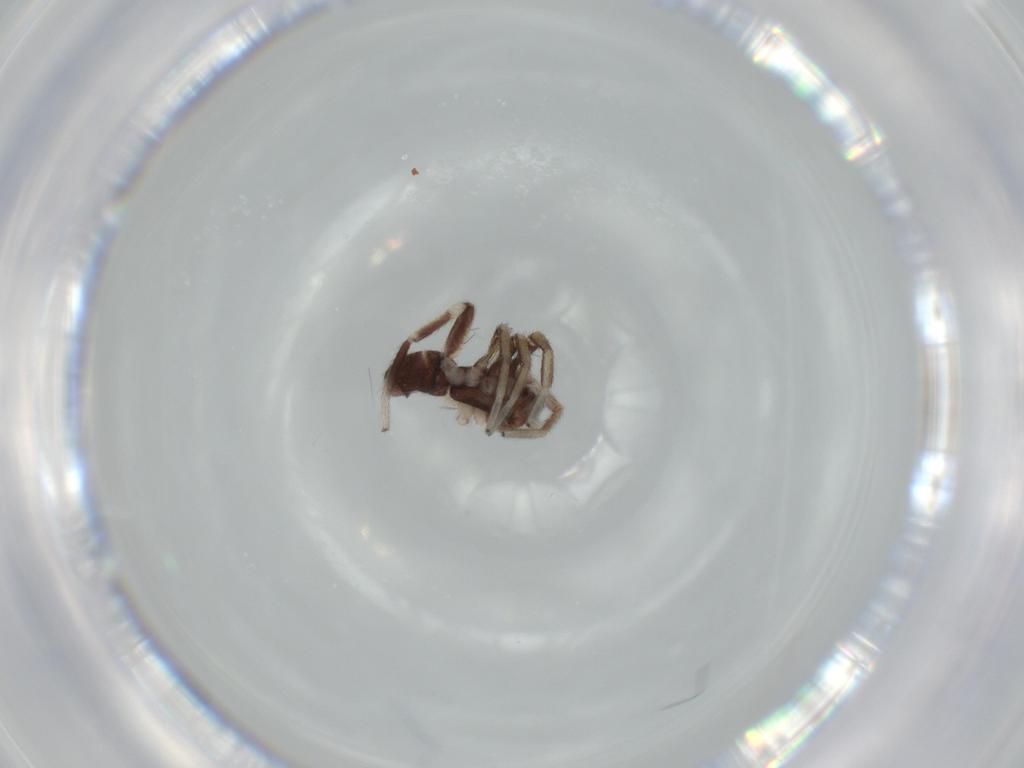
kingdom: Animalia
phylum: Arthropoda
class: Arachnida
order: Araneae
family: Corinnidae
